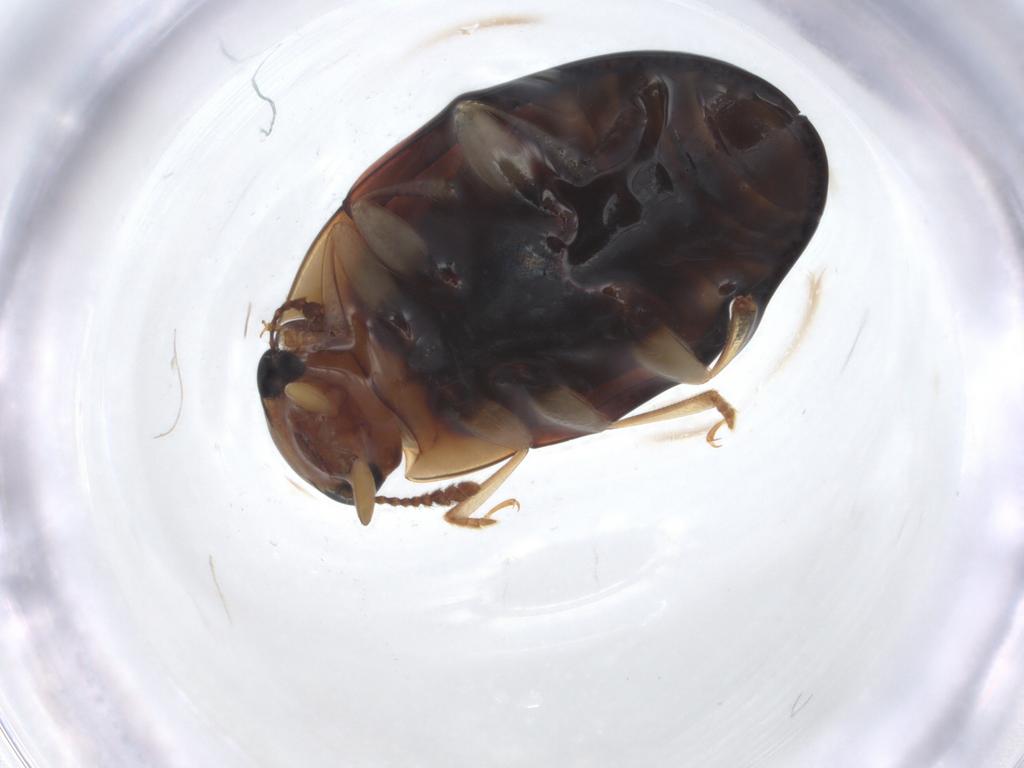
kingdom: Animalia
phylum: Arthropoda
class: Insecta
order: Coleoptera
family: Erotylidae
